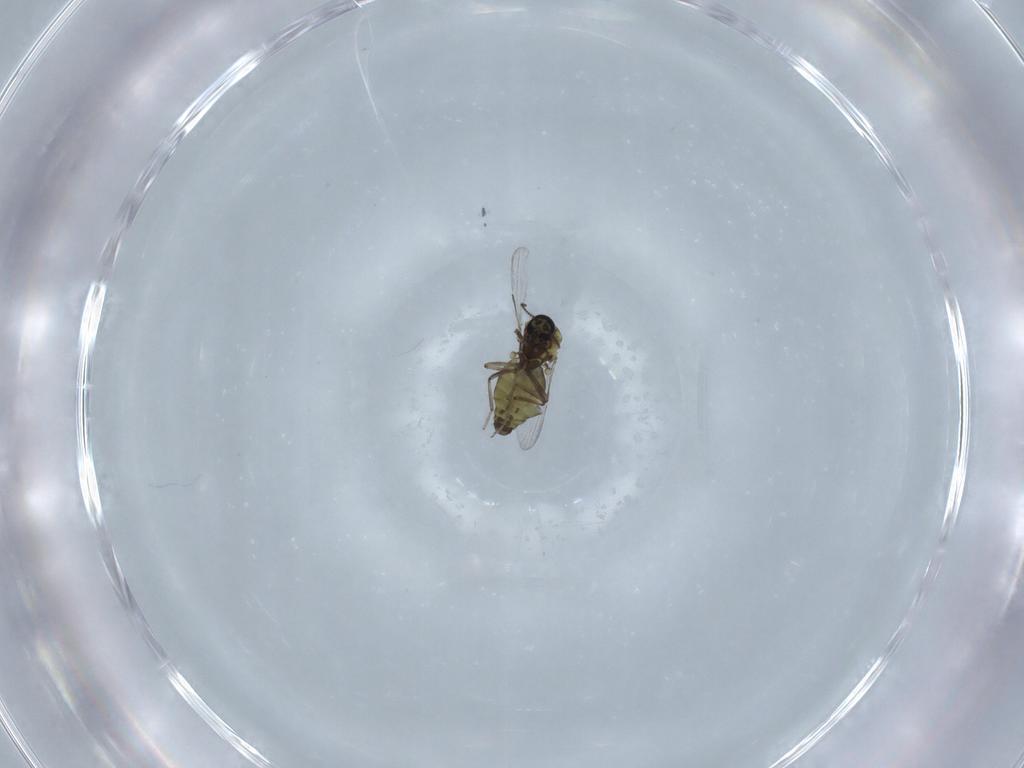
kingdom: Animalia
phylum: Arthropoda
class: Insecta
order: Diptera
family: Ceratopogonidae
